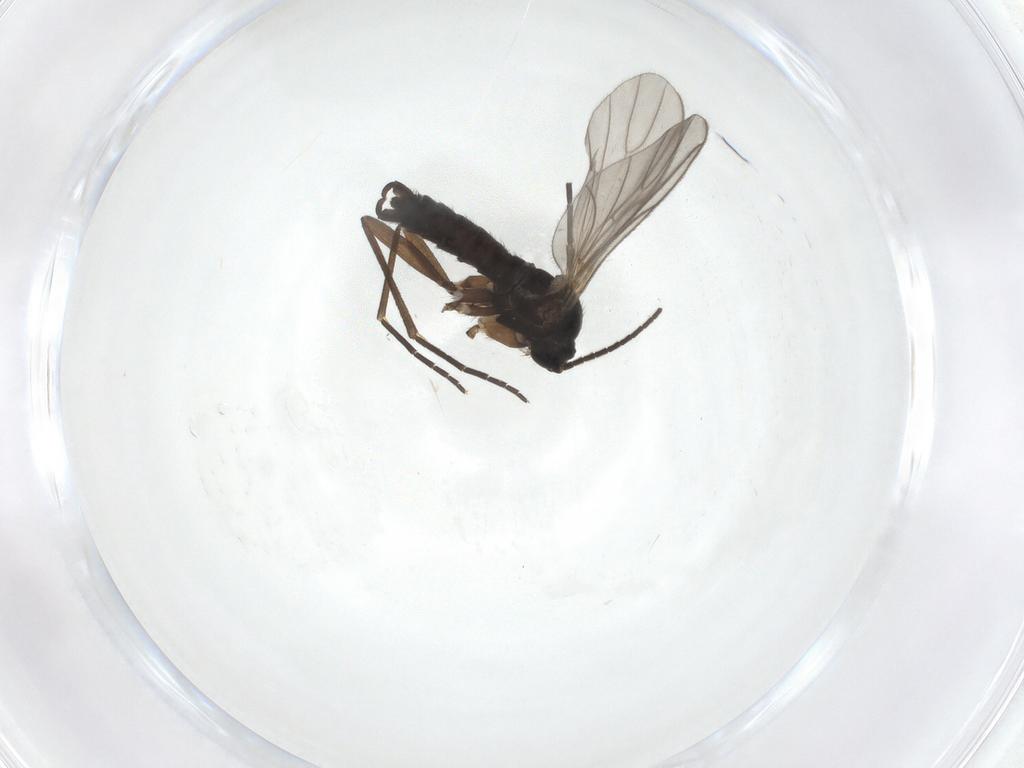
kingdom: Animalia
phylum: Arthropoda
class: Insecta
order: Diptera
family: Sciaridae
